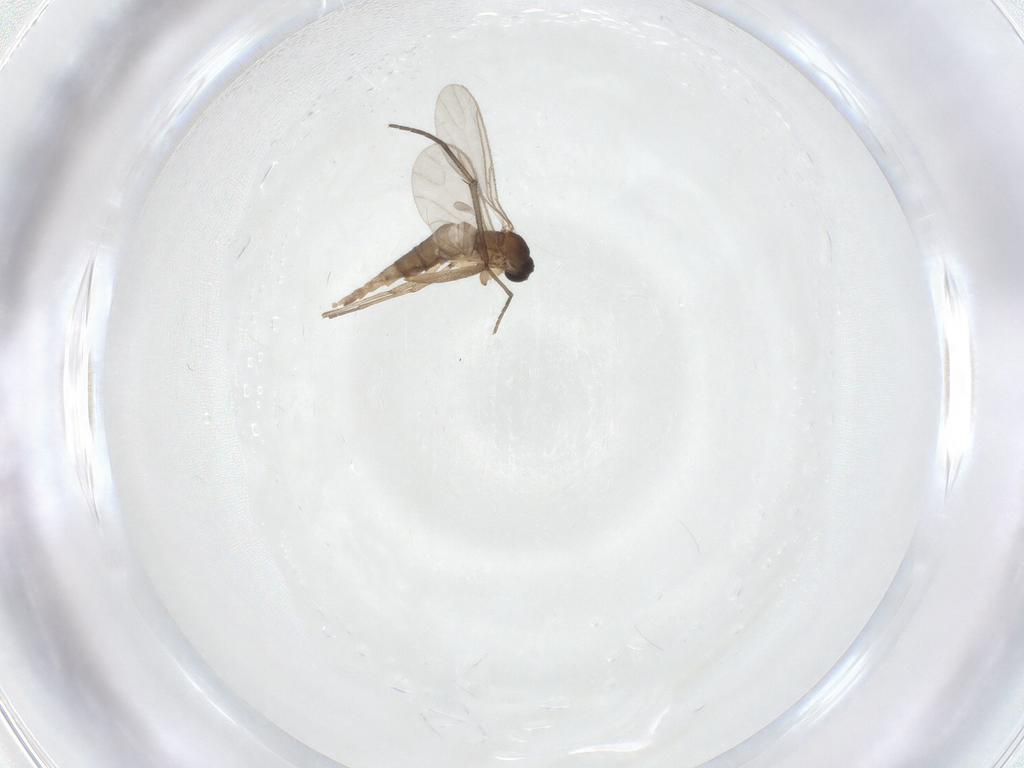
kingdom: Animalia
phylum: Arthropoda
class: Insecta
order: Diptera
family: Sciaridae
